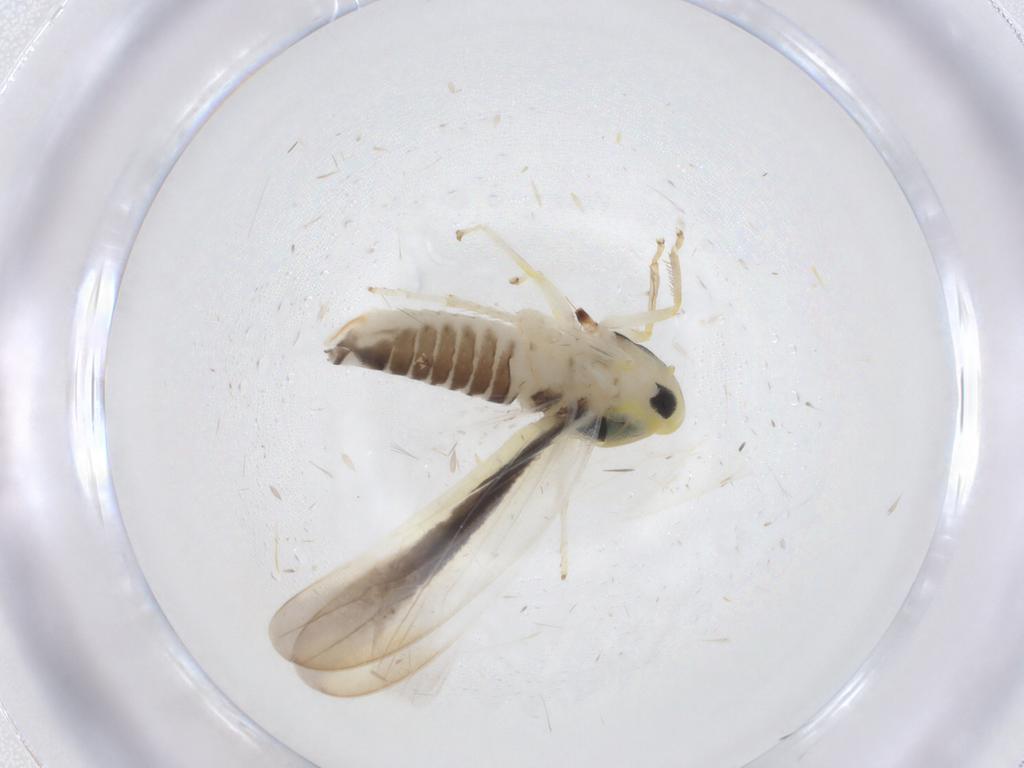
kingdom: Animalia
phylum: Arthropoda
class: Insecta
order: Hemiptera
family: Cicadellidae
